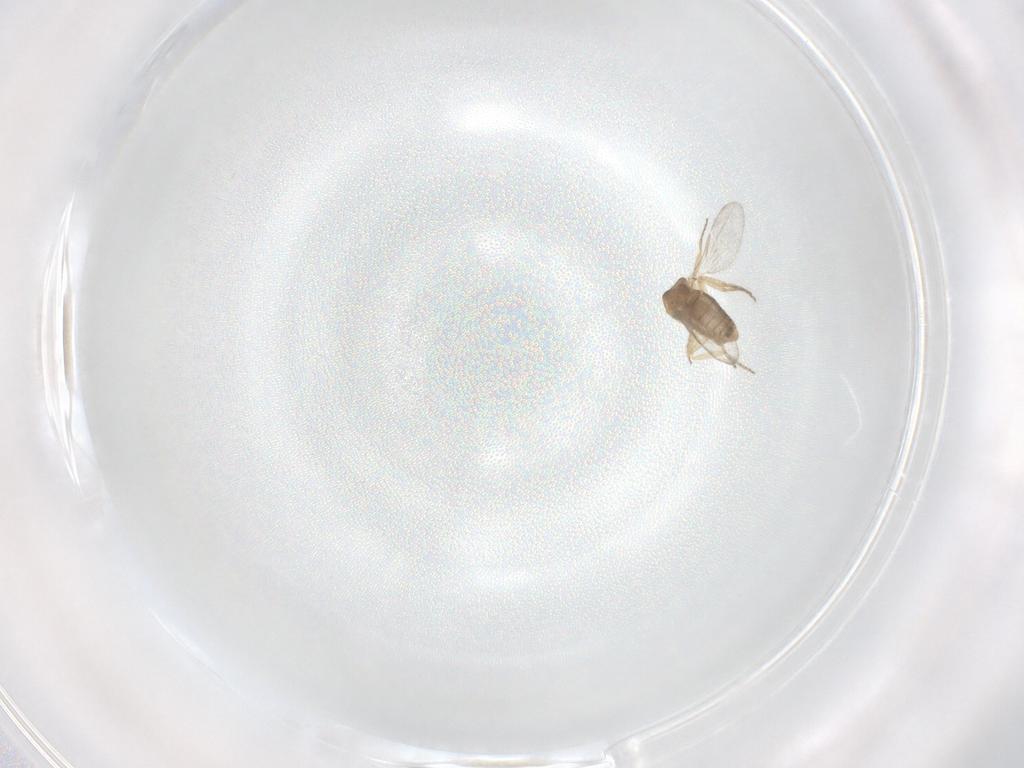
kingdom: Animalia
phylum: Arthropoda
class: Insecta
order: Diptera
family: Ceratopogonidae
